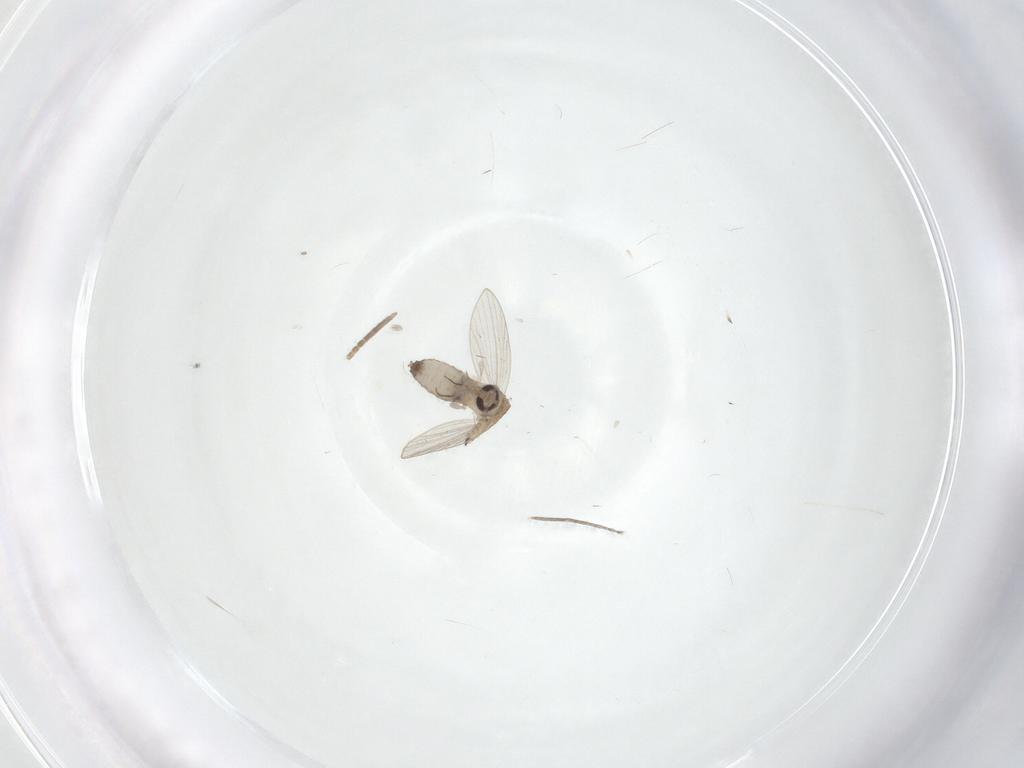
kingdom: Animalia
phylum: Arthropoda
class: Insecta
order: Diptera
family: Psychodidae
